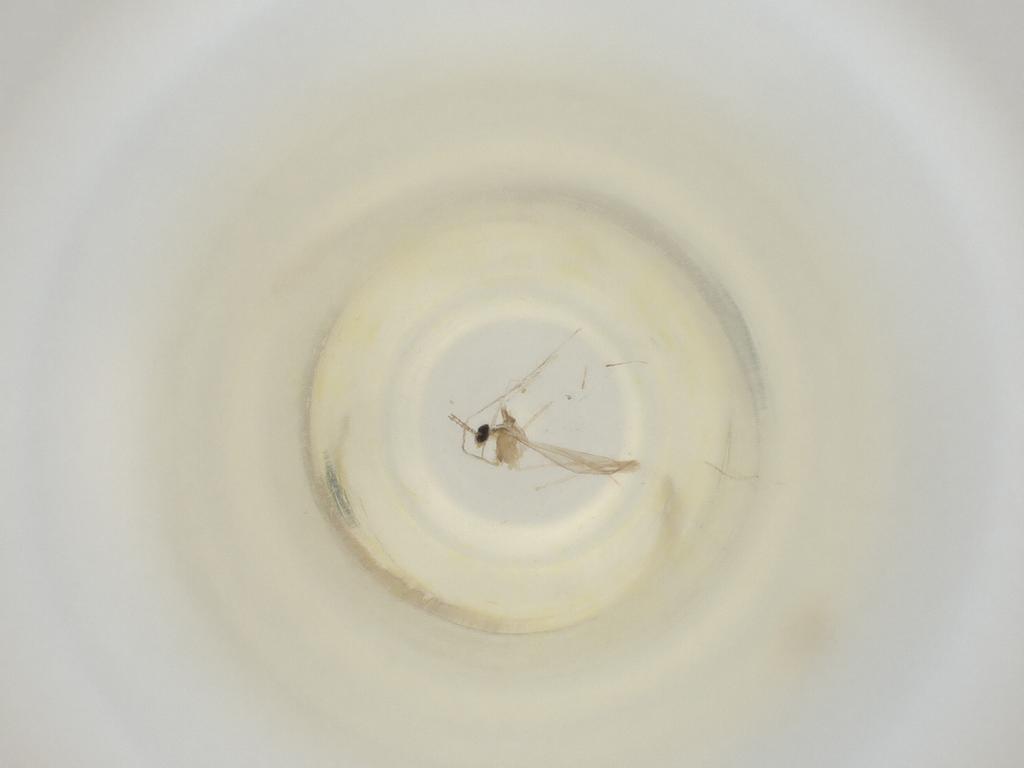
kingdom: Animalia
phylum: Arthropoda
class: Insecta
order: Diptera
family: Cecidomyiidae
